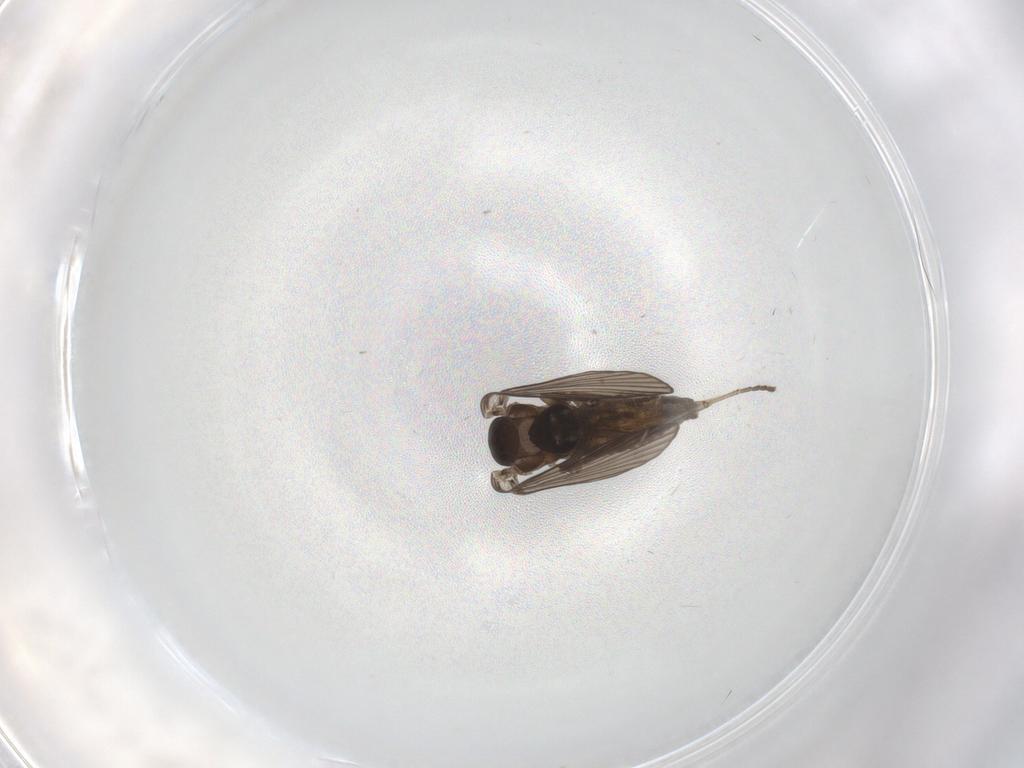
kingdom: Animalia
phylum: Arthropoda
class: Insecta
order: Diptera
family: Psychodidae
